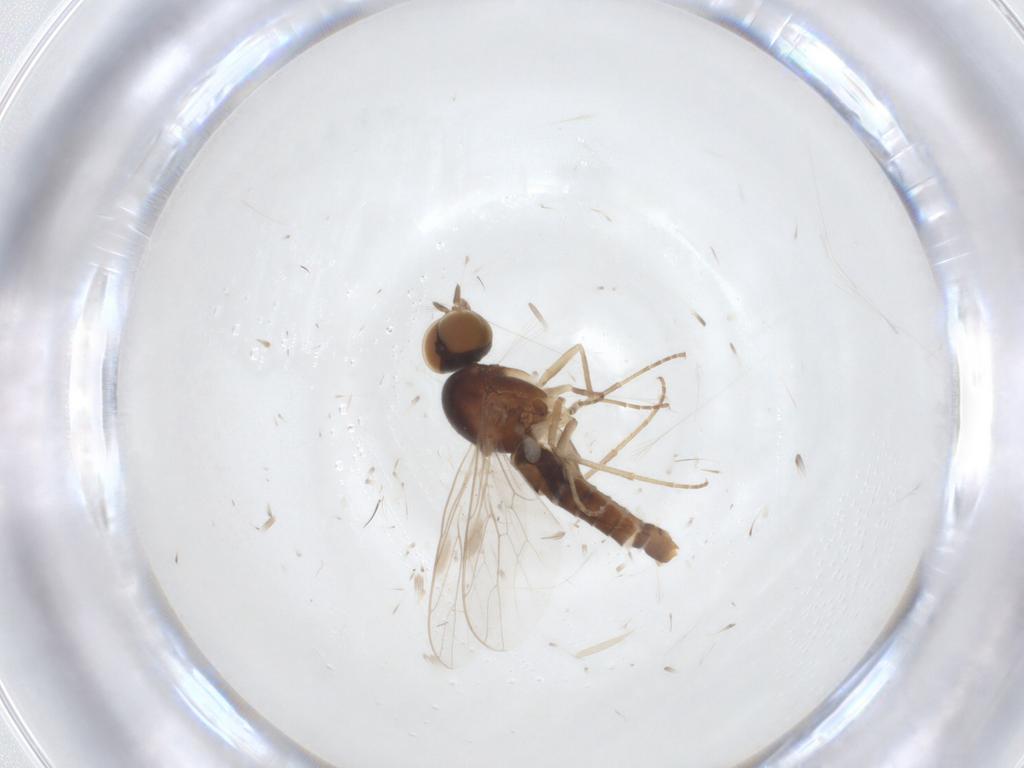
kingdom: Animalia
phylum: Arthropoda
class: Insecta
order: Diptera
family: Scenopinidae
